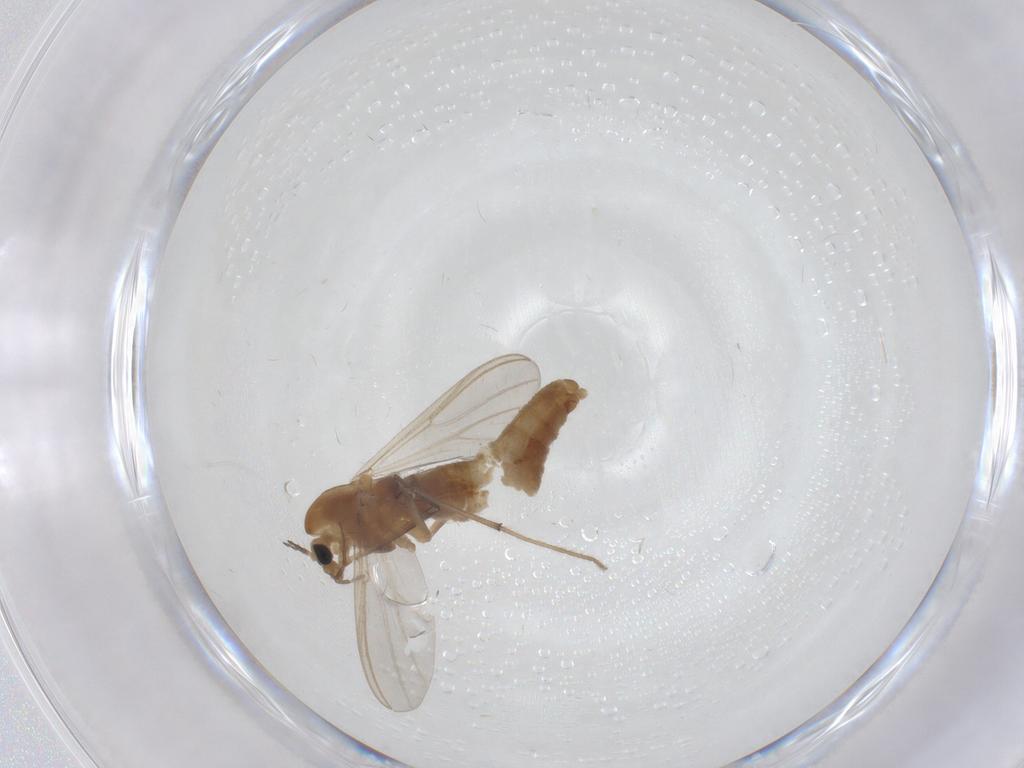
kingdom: Animalia
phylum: Arthropoda
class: Insecta
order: Diptera
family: Chironomidae
